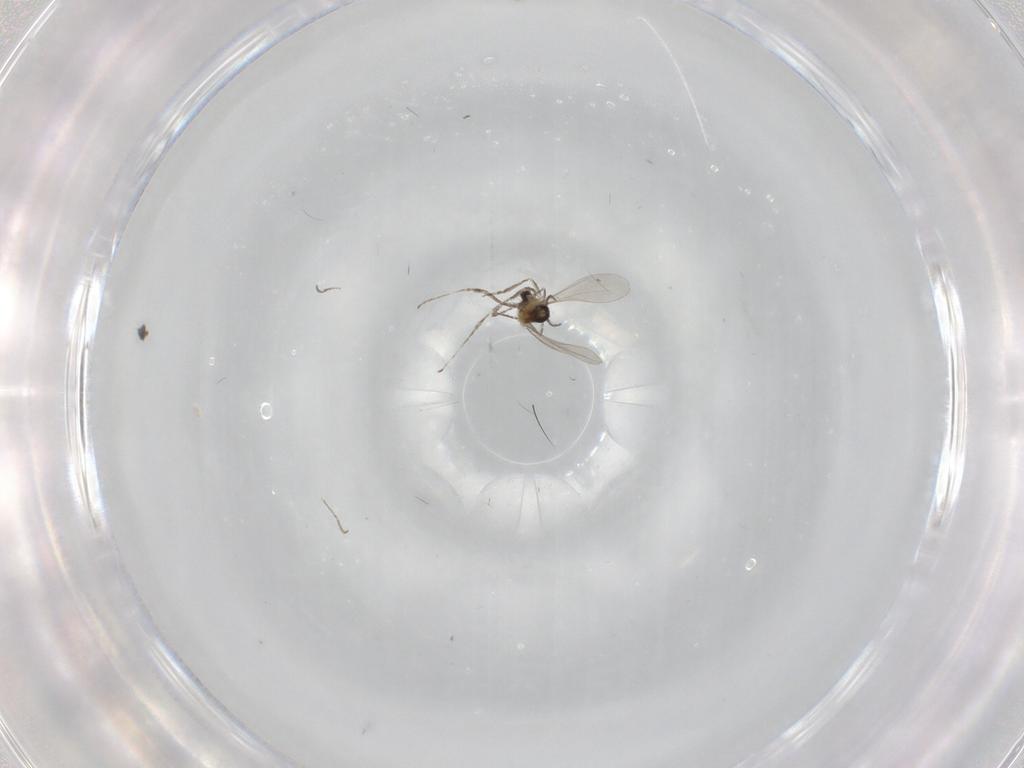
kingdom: Animalia
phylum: Arthropoda
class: Insecta
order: Diptera
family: Cecidomyiidae
